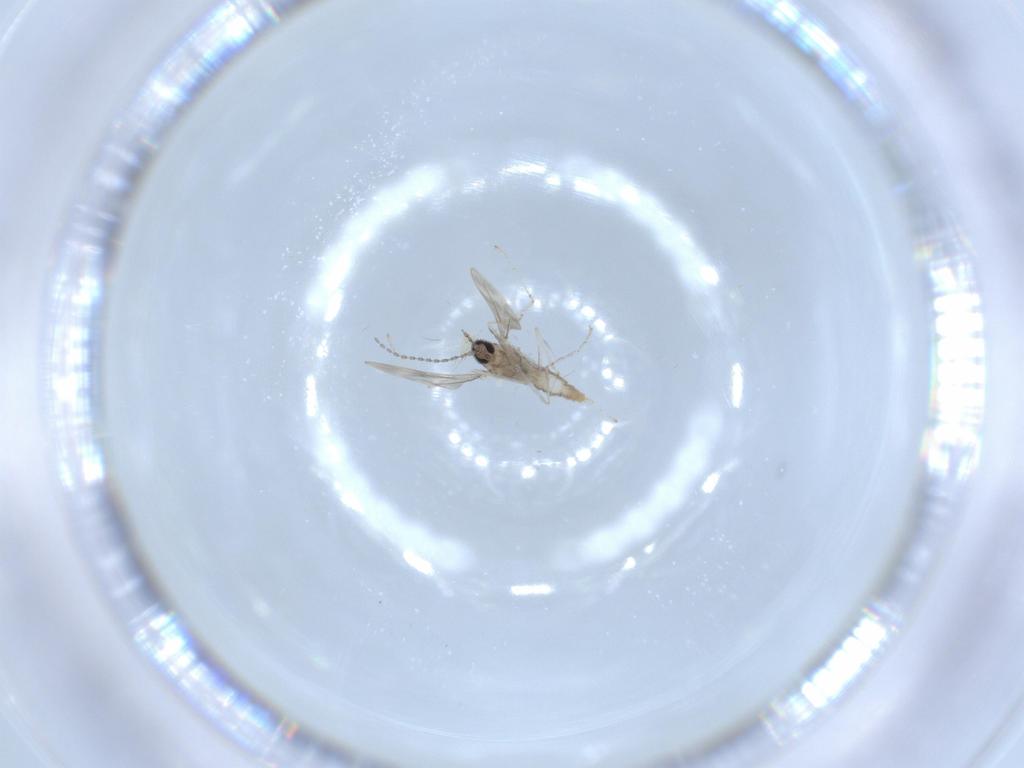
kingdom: Animalia
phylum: Arthropoda
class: Insecta
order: Diptera
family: Cecidomyiidae
